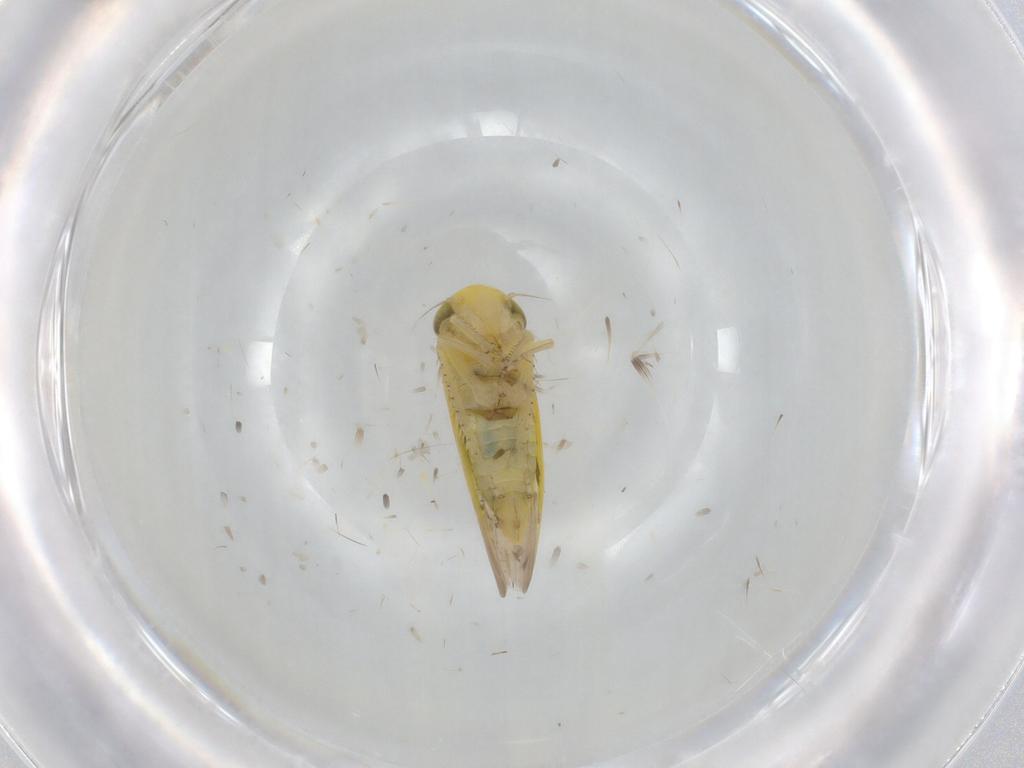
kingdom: Animalia
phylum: Arthropoda
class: Insecta
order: Hemiptera
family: Cicadellidae
